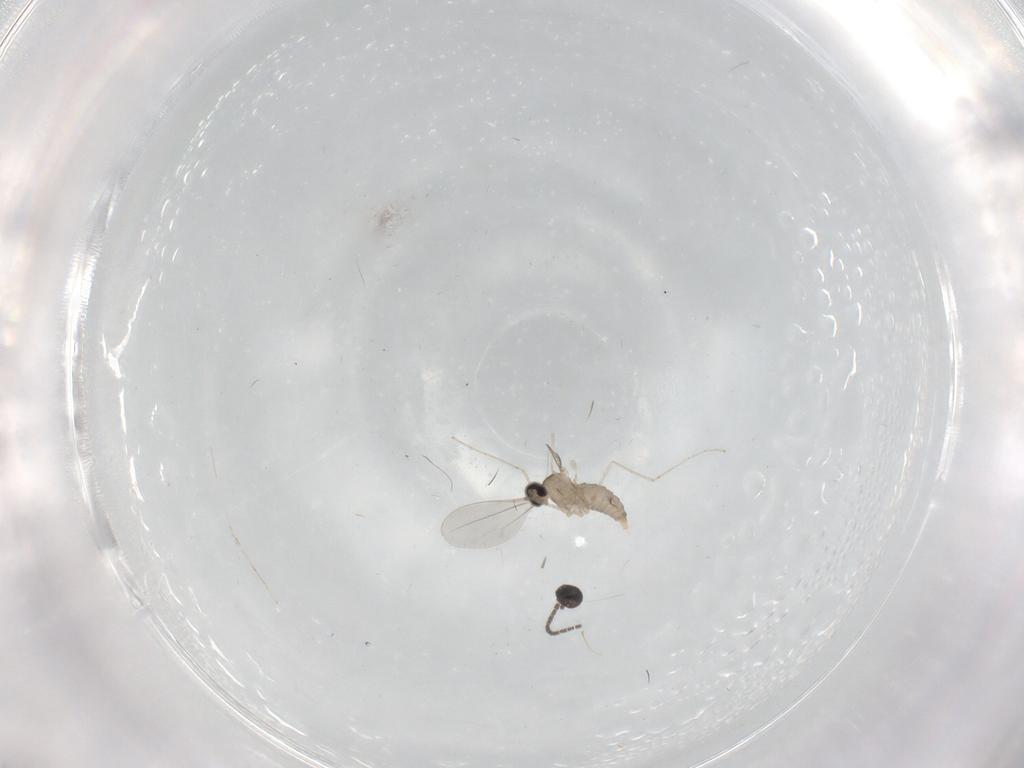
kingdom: Animalia
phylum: Arthropoda
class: Insecta
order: Diptera
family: Cecidomyiidae
